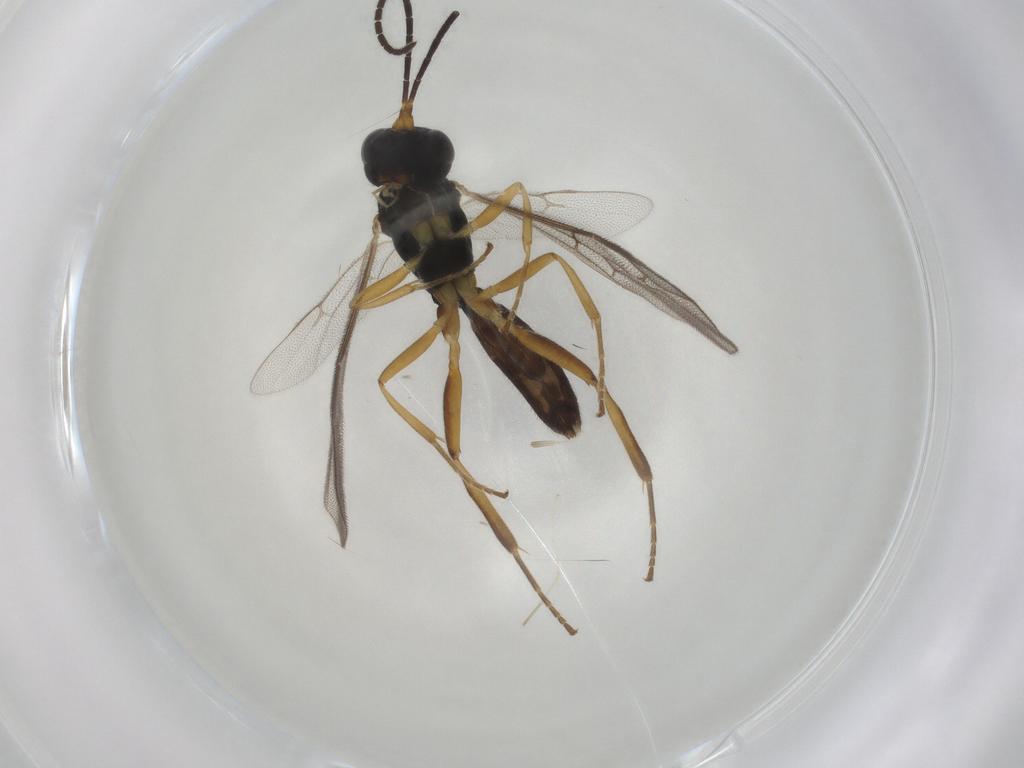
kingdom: Animalia
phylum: Arthropoda
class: Insecta
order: Hymenoptera
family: Ichneumonidae
